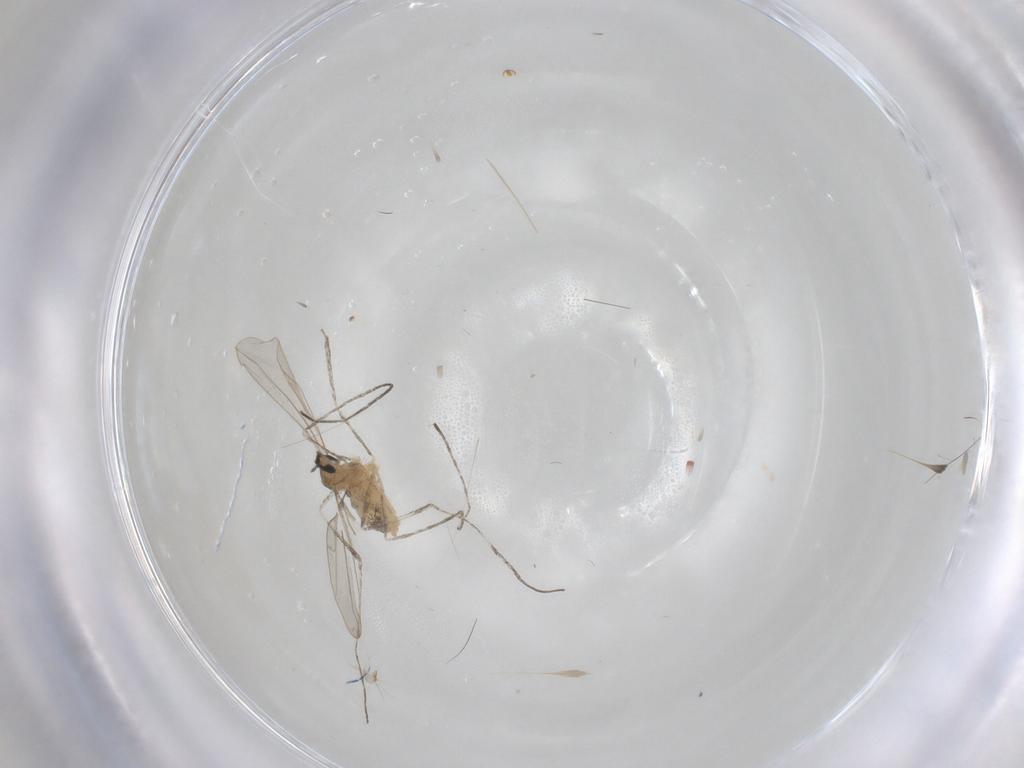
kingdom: Animalia
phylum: Arthropoda
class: Insecta
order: Diptera
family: Cecidomyiidae
